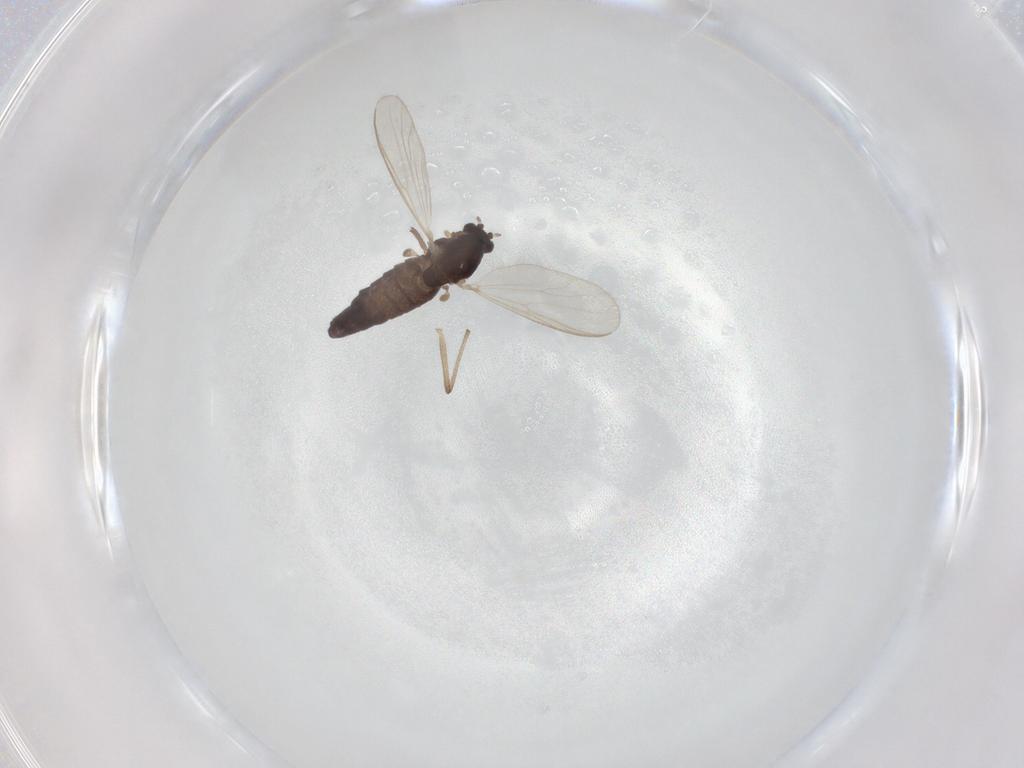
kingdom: Animalia
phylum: Arthropoda
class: Insecta
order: Diptera
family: Chironomidae
